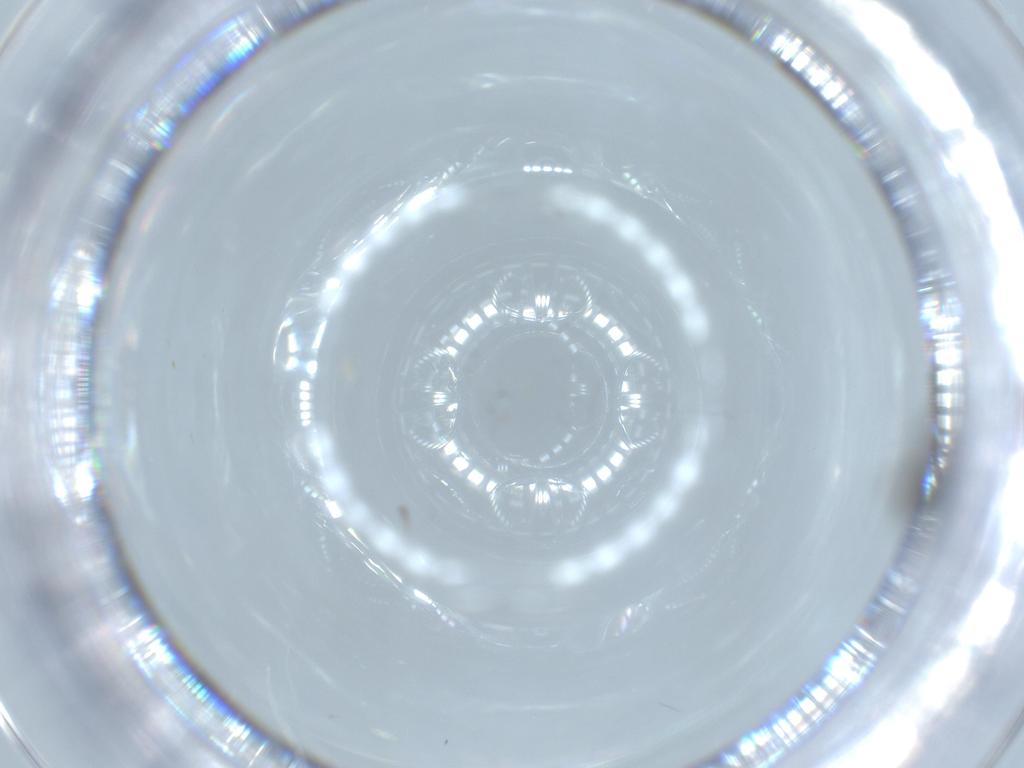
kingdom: Animalia
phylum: Arthropoda
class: Insecta
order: Diptera
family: Sciaridae
